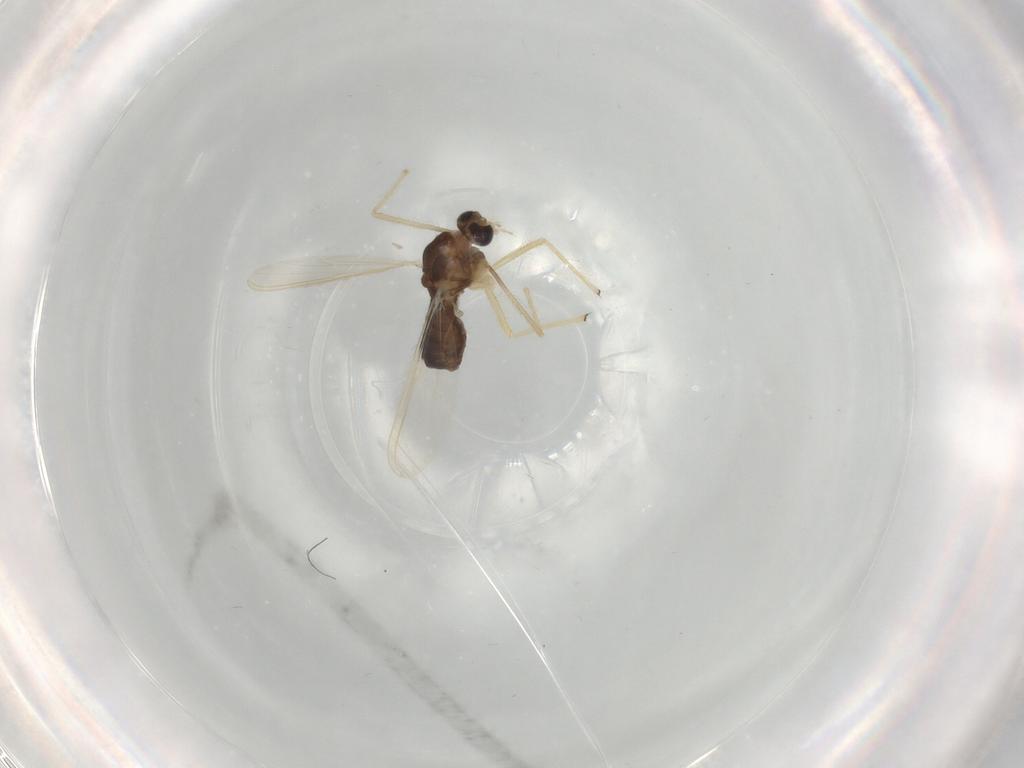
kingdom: Animalia
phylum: Arthropoda
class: Insecta
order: Diptera
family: Chironomidae
